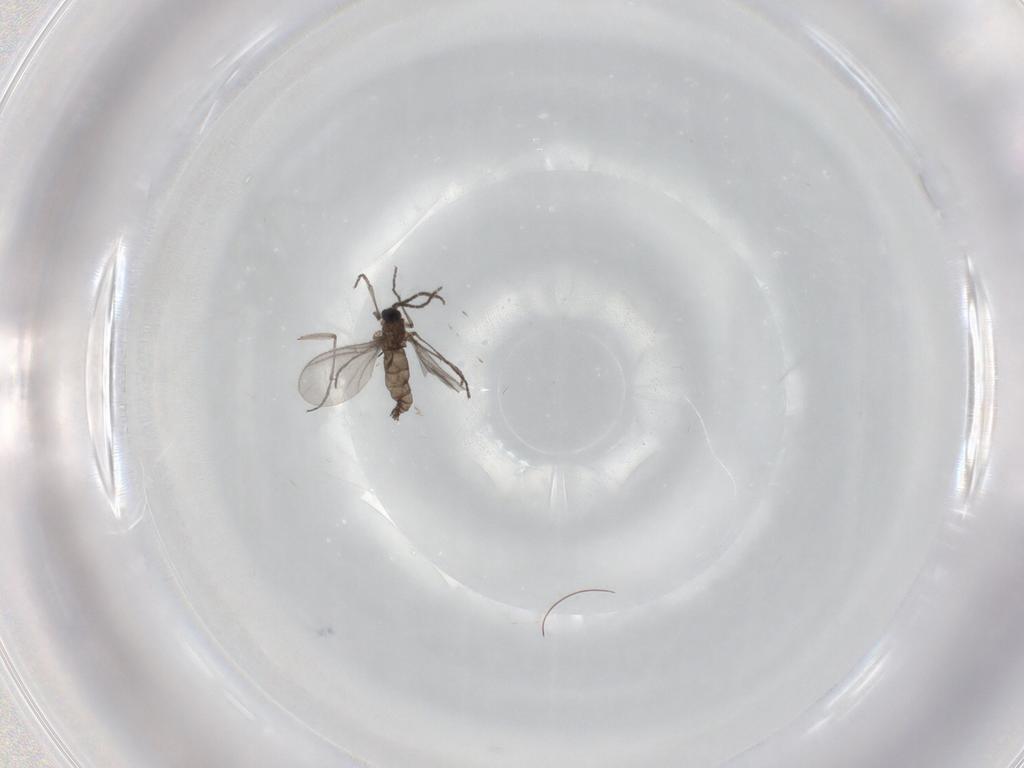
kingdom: Animalia
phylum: Arthropoda
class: Insecta
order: Diptera
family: Sciaridae
